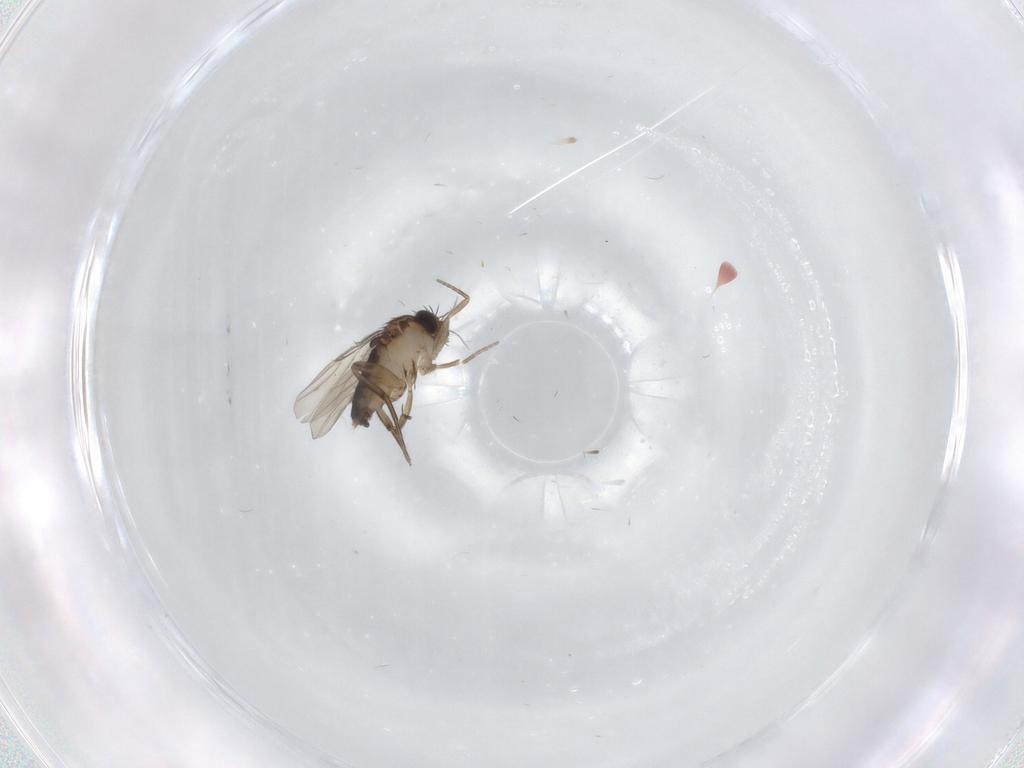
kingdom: Animalia
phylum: Arthropoda
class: Insecta
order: Diptera
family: Phoridae
